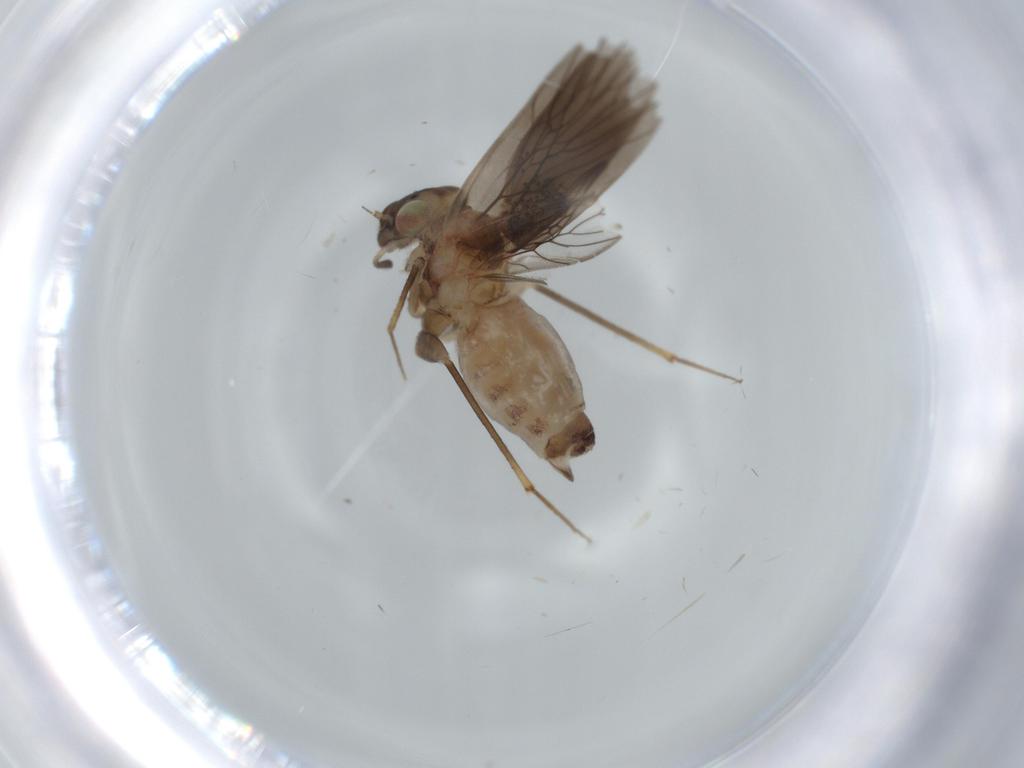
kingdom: Animalia
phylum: Arthropoda
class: Insecta
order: Psocodea
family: Lepidopsocidae
